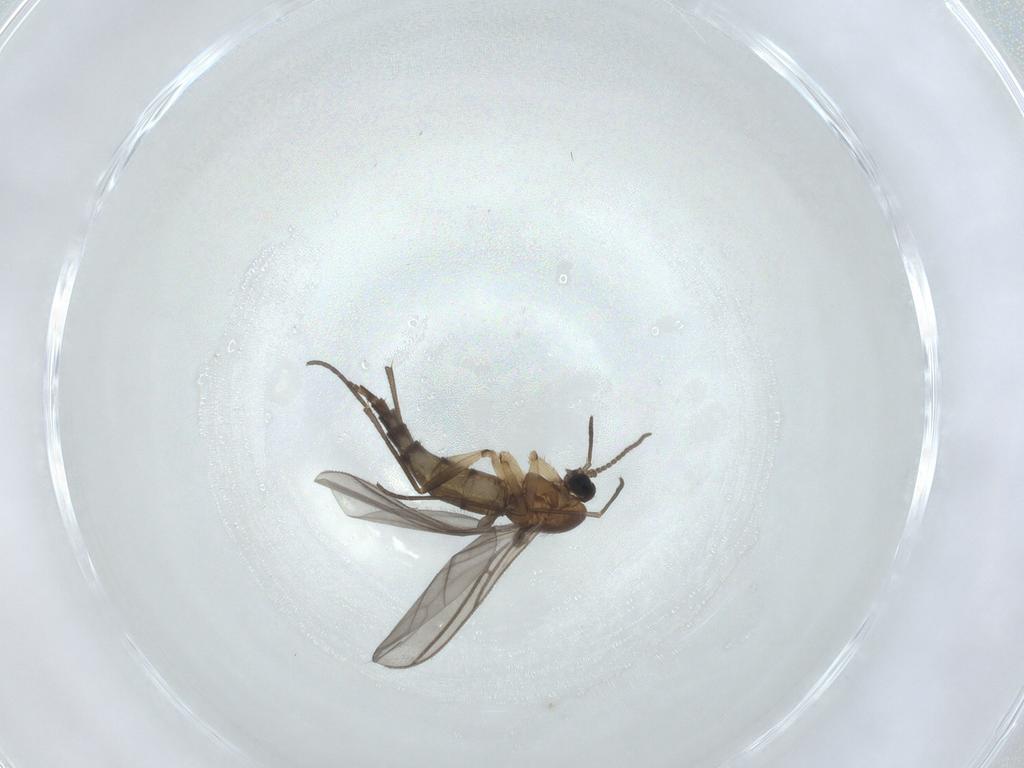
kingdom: Animalia
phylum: Arthropoda
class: Insecta
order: Diptera
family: Sciaridae
